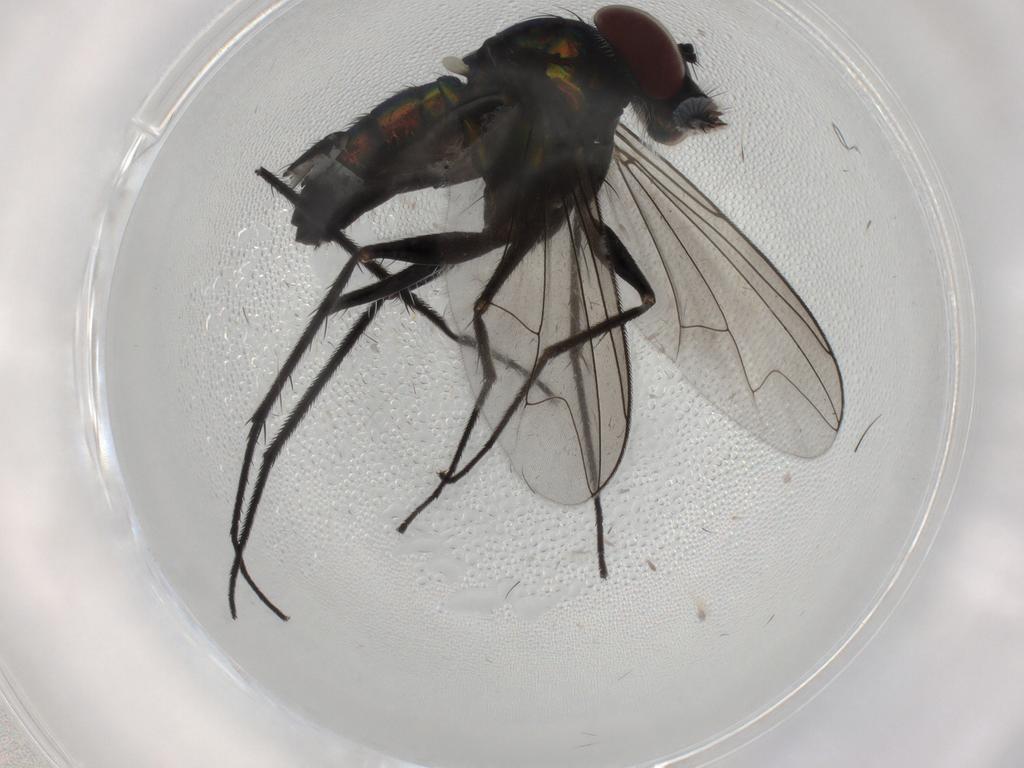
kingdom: Animalia
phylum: Arthropoda
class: Insecta
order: Diptera
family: Dolichopodidae
